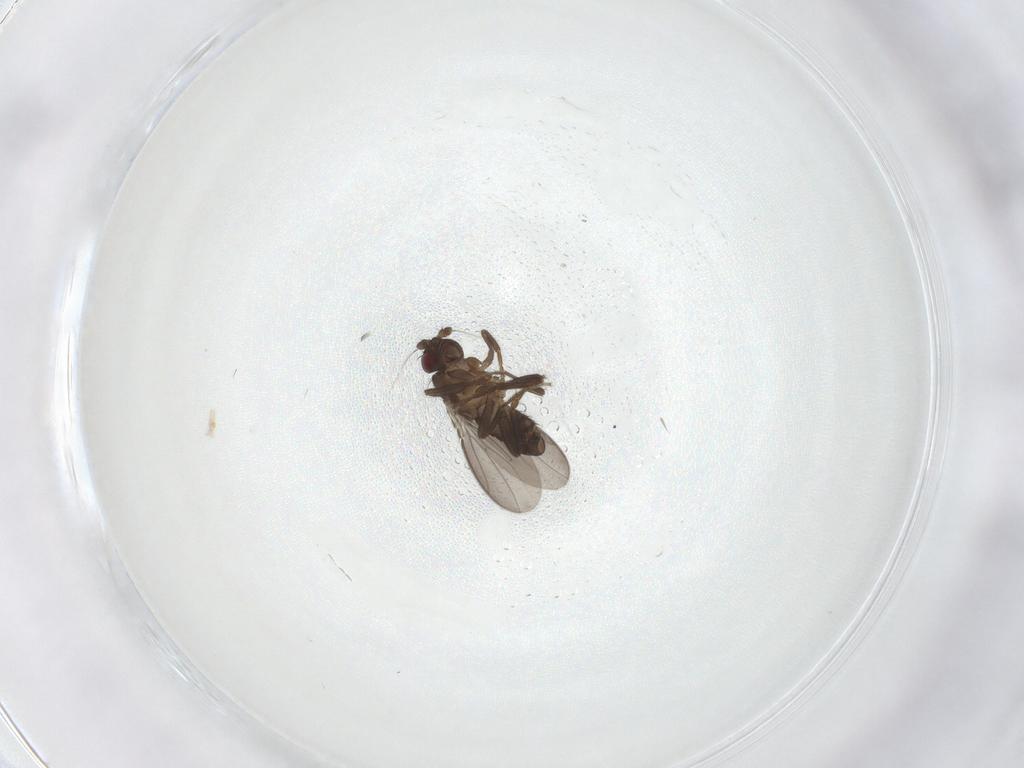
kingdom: Animalia
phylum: Arthropoda
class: Insecta
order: Diptera
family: Sphaeroceridae
